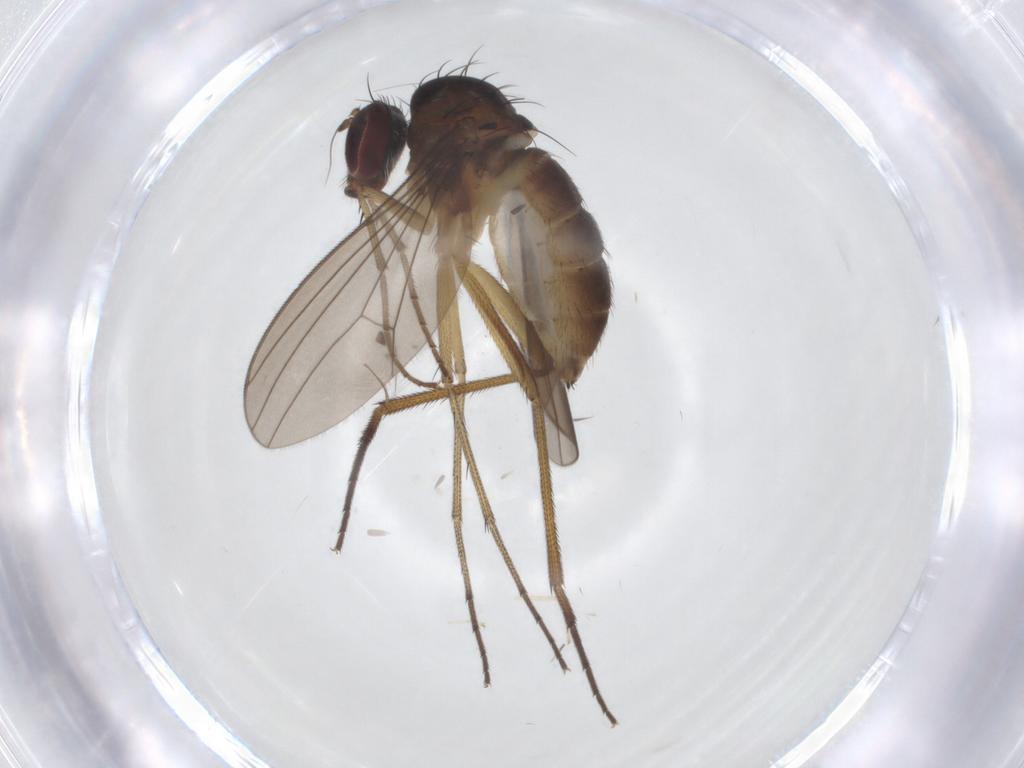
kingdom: Animalia
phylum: Arthropoda
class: Insecta
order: Diptera
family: Dolichopodidae
